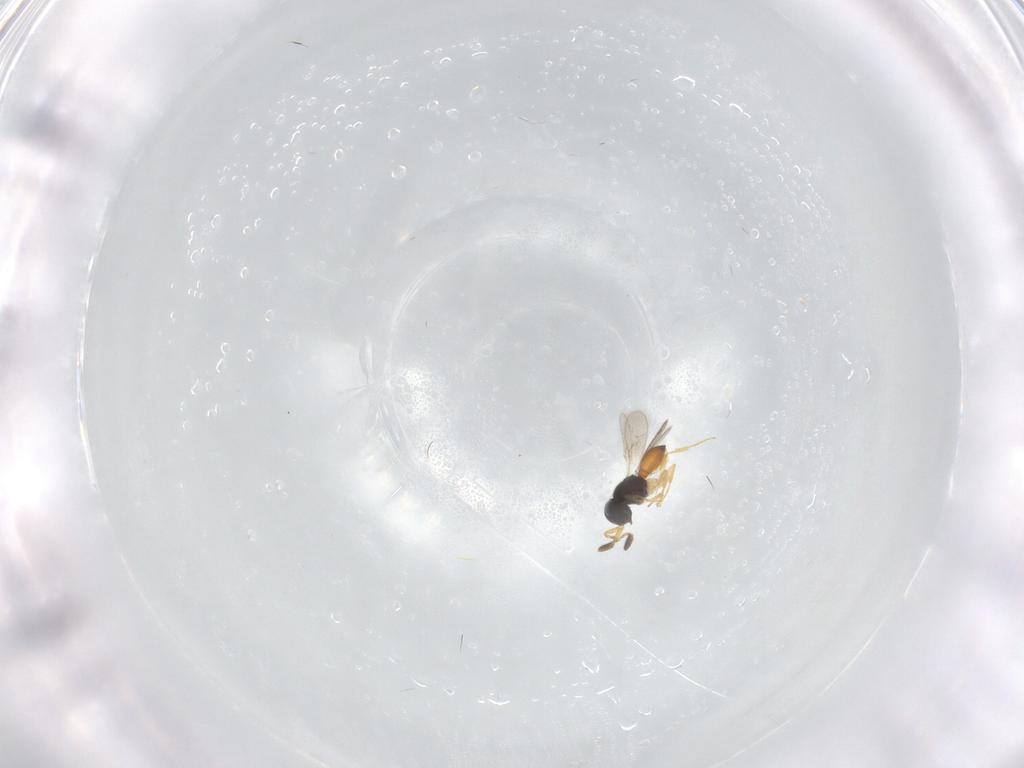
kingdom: Animalia
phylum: Arthropoda
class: Insecta
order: Hymenoptera
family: Scelionidae
